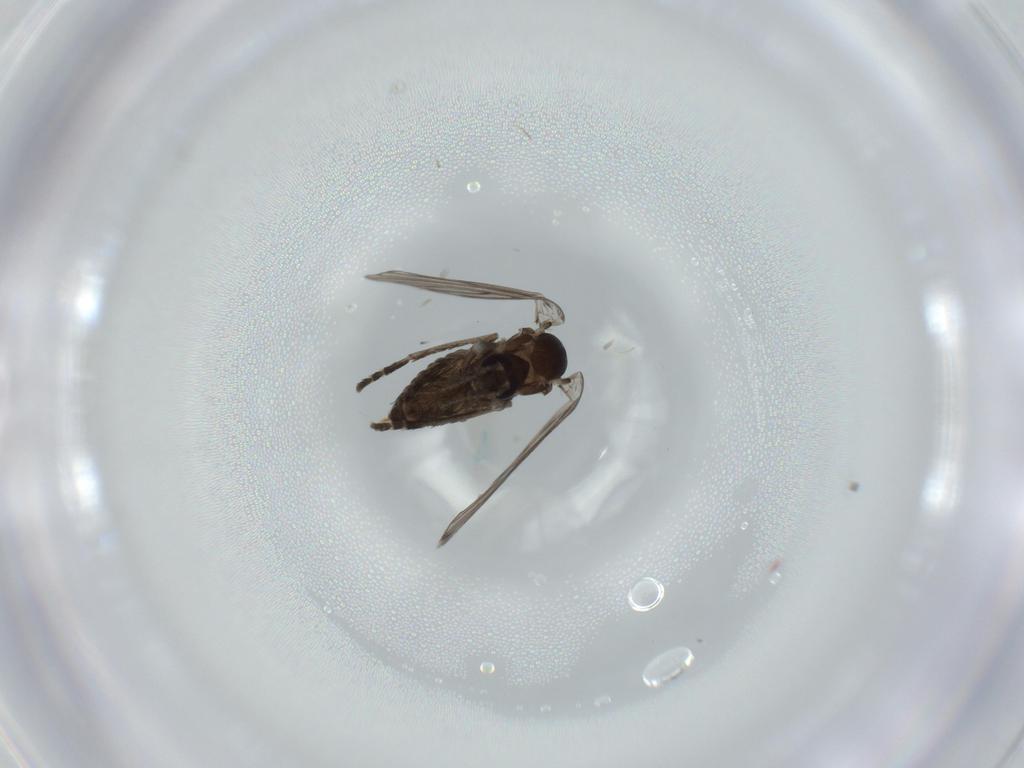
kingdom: Animalia
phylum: Arthropoda
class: Insecta
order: Diptera
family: Psychodidae
